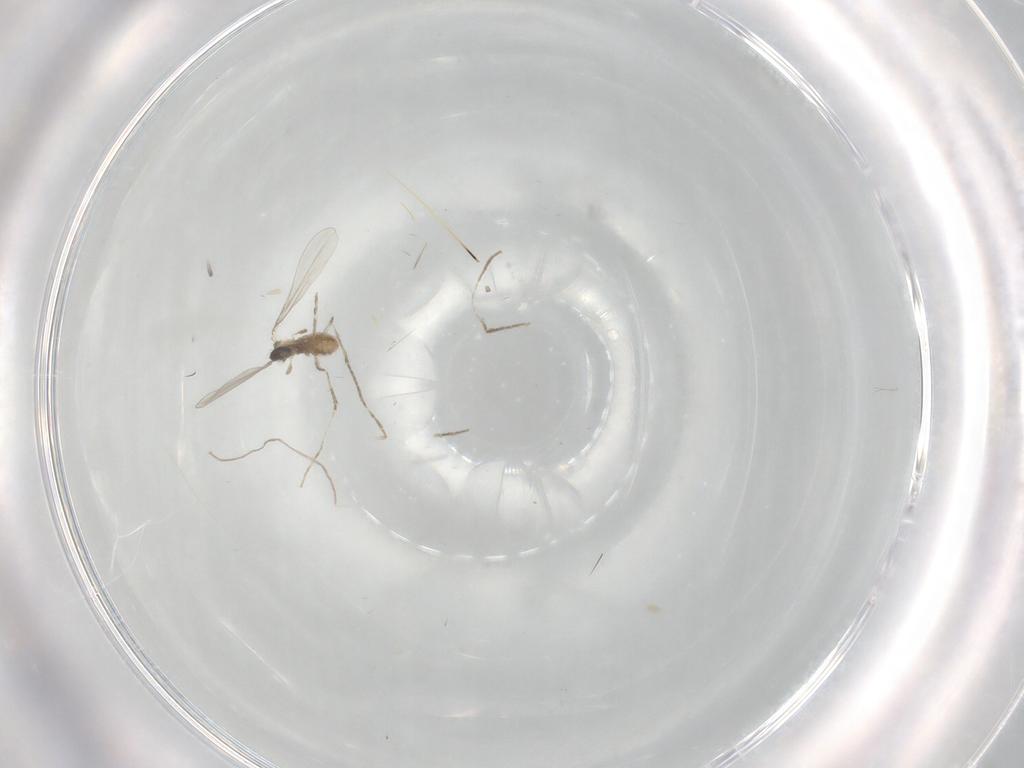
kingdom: Animalia
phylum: Arthropoda
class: Insecta
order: Diptera
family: Cecidomyiidae
